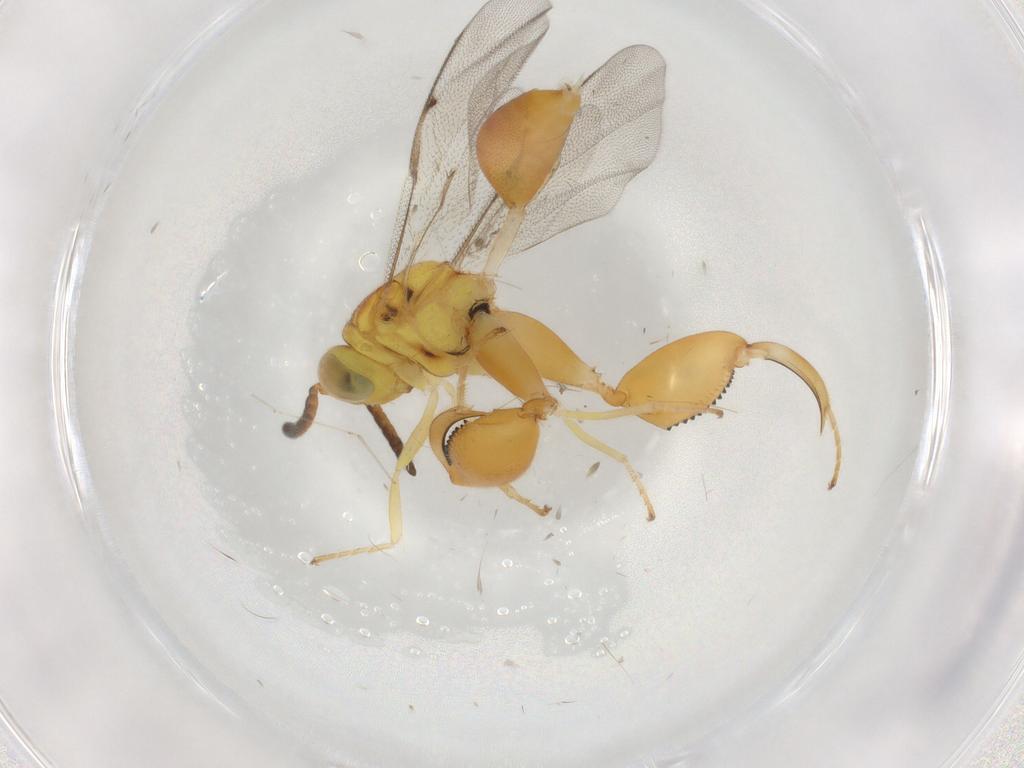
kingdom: Animalia
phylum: Arthropoda
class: Insecta
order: Hymenoptera
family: Chalcididae
